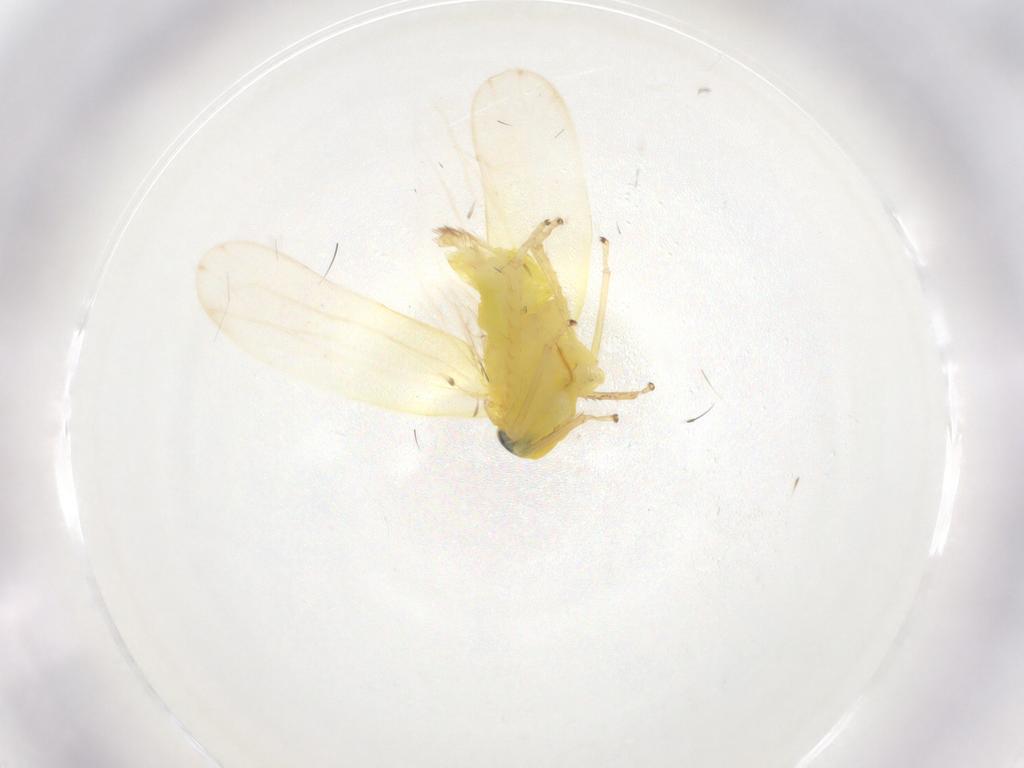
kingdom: Animalia
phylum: Arthropoda
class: Insecta
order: Hemiptera
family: Cicadellidae
